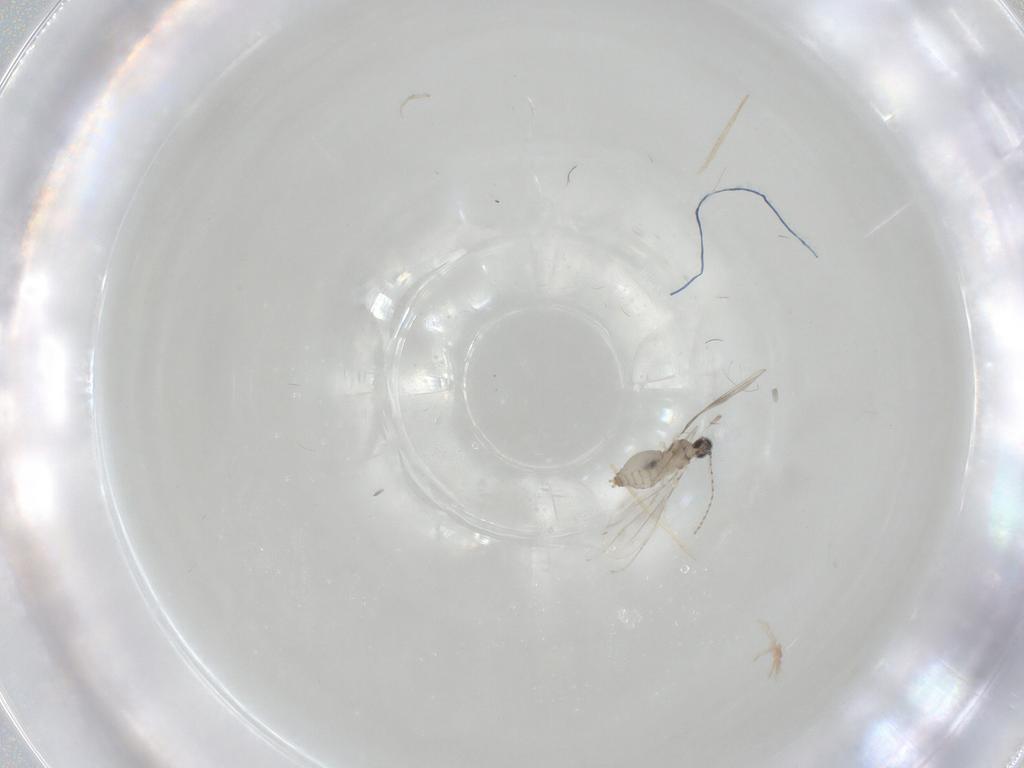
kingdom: Animalia
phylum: Arthropoda
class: Insecta
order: Diptera
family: Cecidomyiidae
